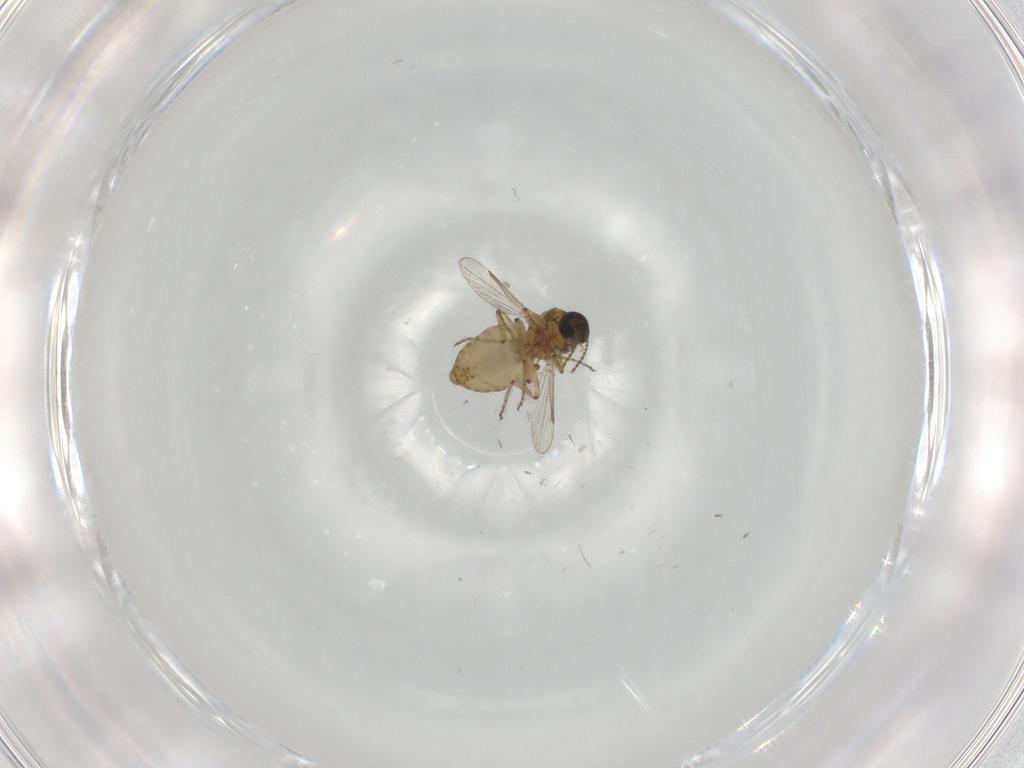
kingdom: Animalia
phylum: Arthropoda
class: Insecta
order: Diptera
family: Ceratopogonidae
